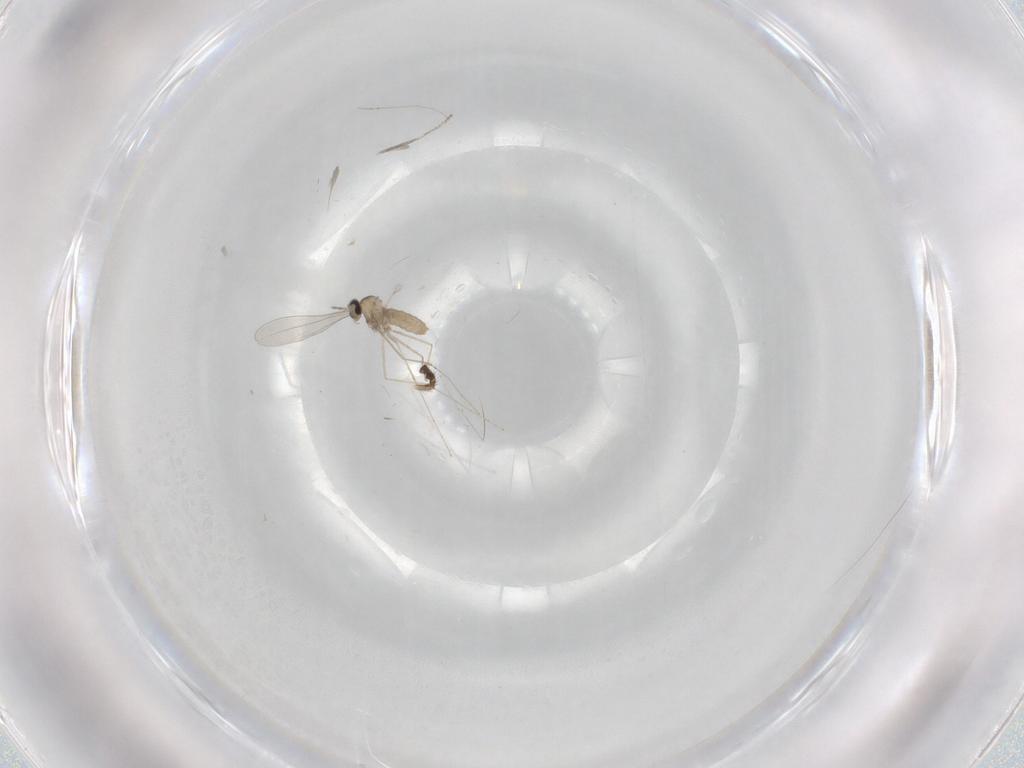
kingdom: Animalia
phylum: Arthropoda
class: Insecta
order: Diptera
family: Cecidomyiidae
